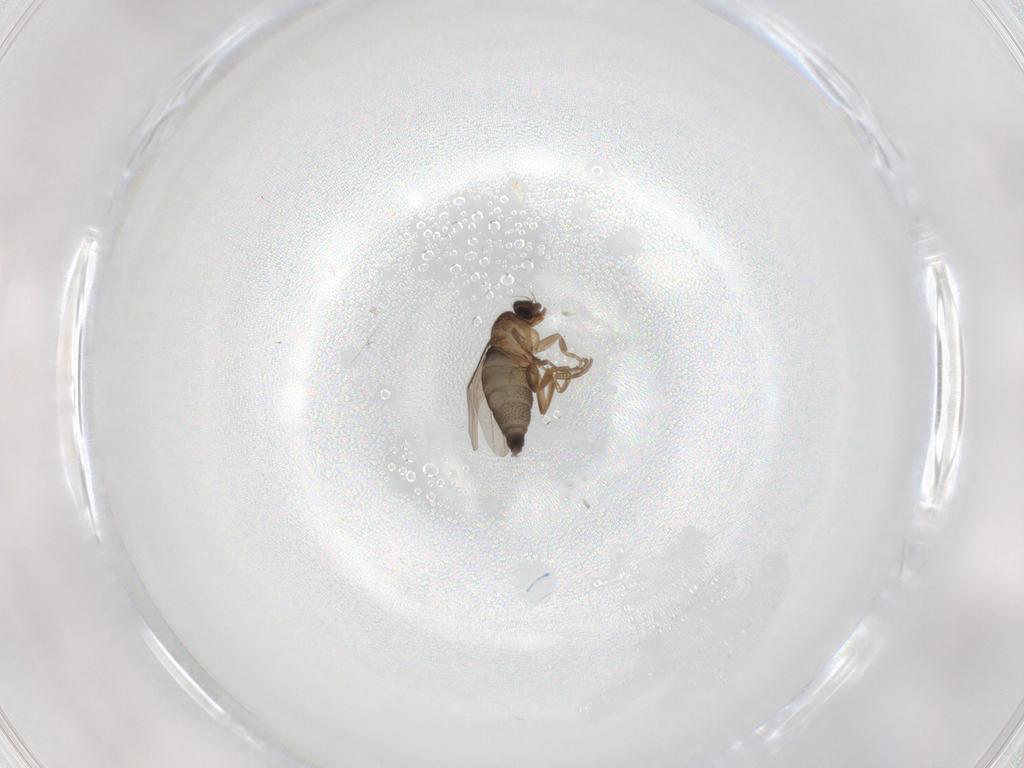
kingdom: Animalia
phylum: Arthropoda
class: Insecta
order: Diptera
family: Phoridae
